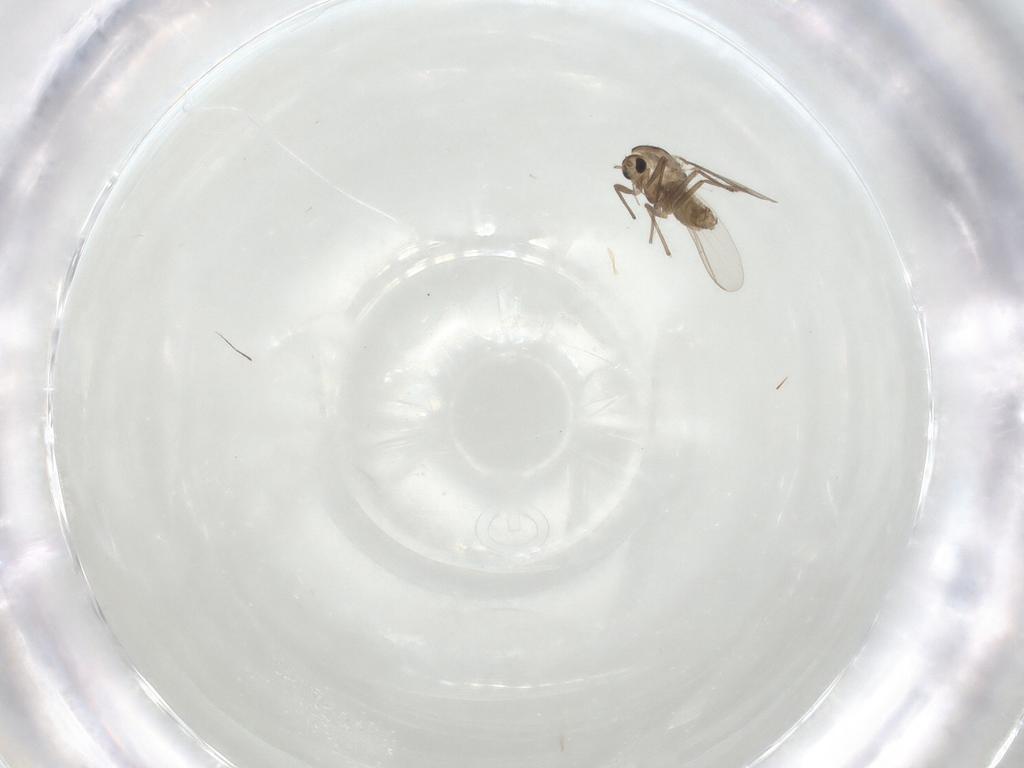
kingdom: Animalia
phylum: Arthropoda
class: Insecta
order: Diptera
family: Chironomidae
